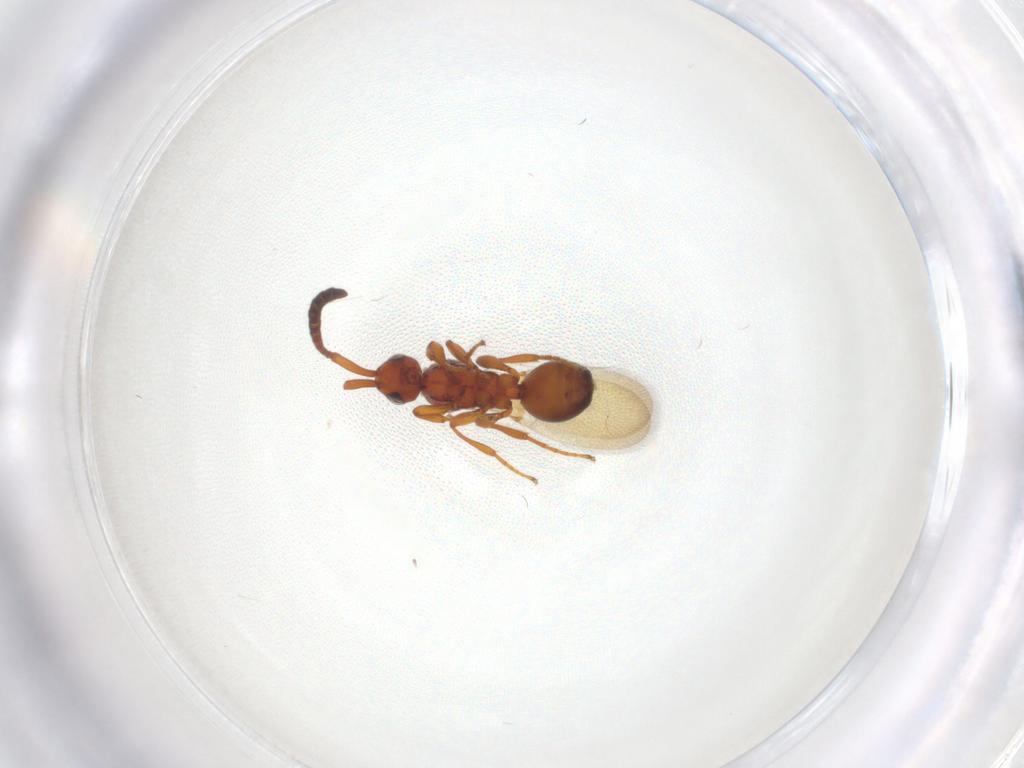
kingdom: Animalia
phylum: Arthropoda
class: Insecta
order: Hymenoptera
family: Diapriidae
